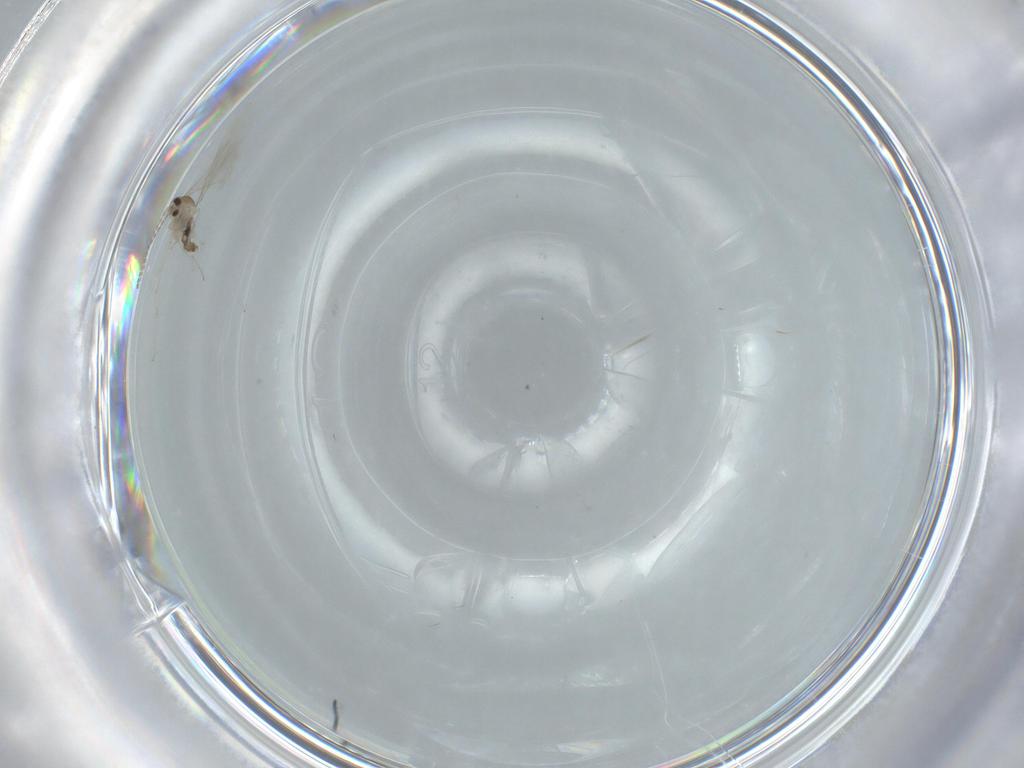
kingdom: Animalia
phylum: Arthropoda
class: Insecta
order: Diptera
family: Cecidomyiidae
